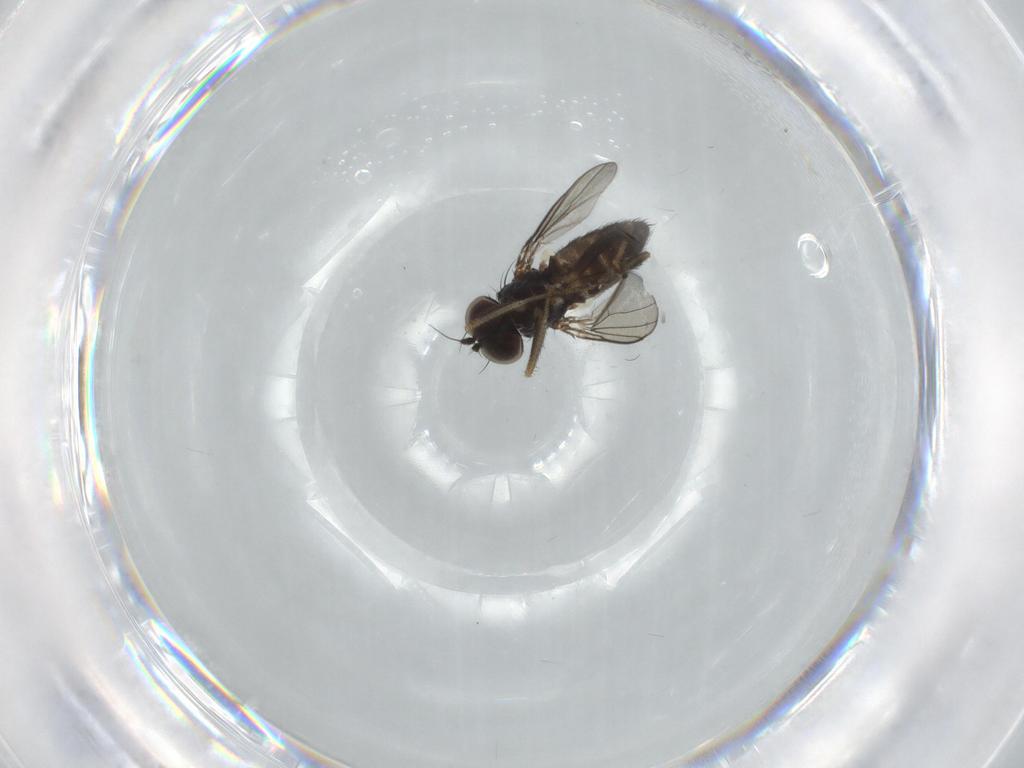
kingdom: Animalia
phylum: Arthropoda
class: Insecta
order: Diptera
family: Dolichopodidae
